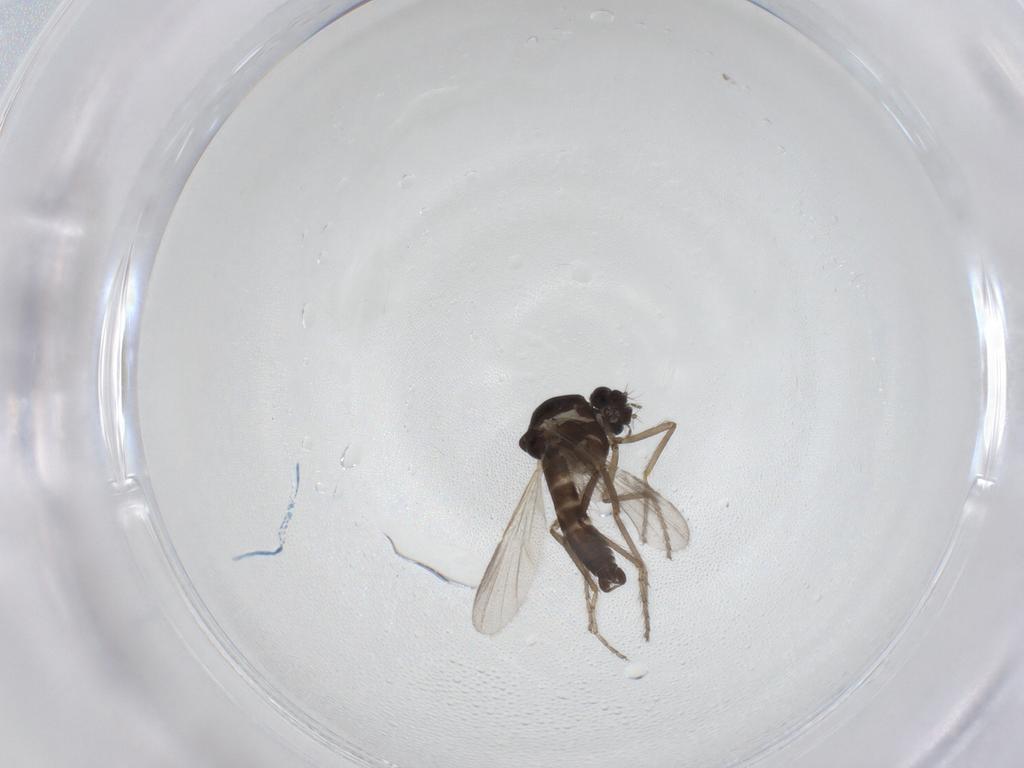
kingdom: Animalia
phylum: Arthropoda
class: Insecta
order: Diptera
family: Ceratopogonidae
